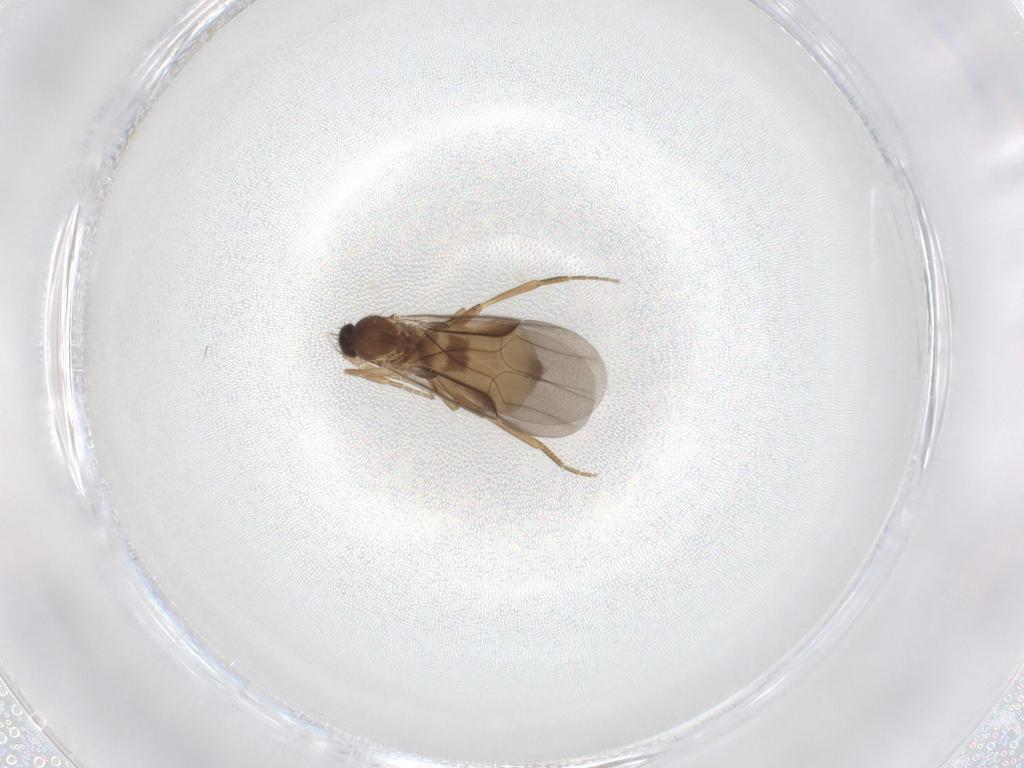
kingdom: Animalia
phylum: Arthropoda
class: Insecta
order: Diptera
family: Phoridae
